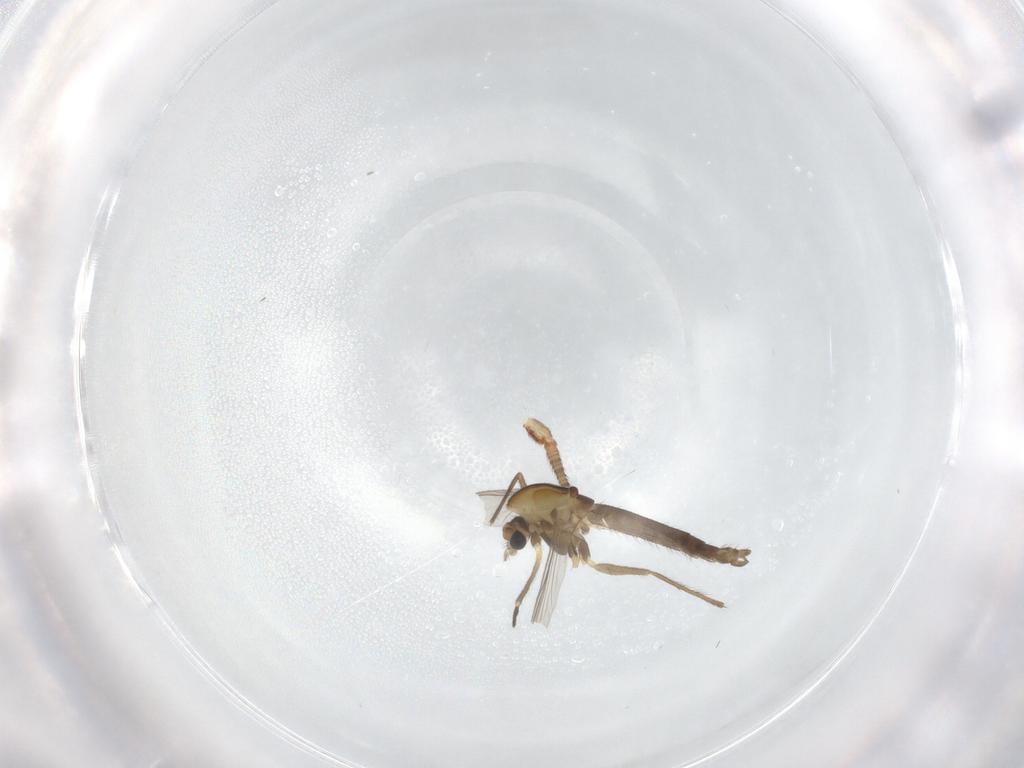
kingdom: Animalia
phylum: Arthropoda
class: Insecta
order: Diptera
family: Chironomidae
